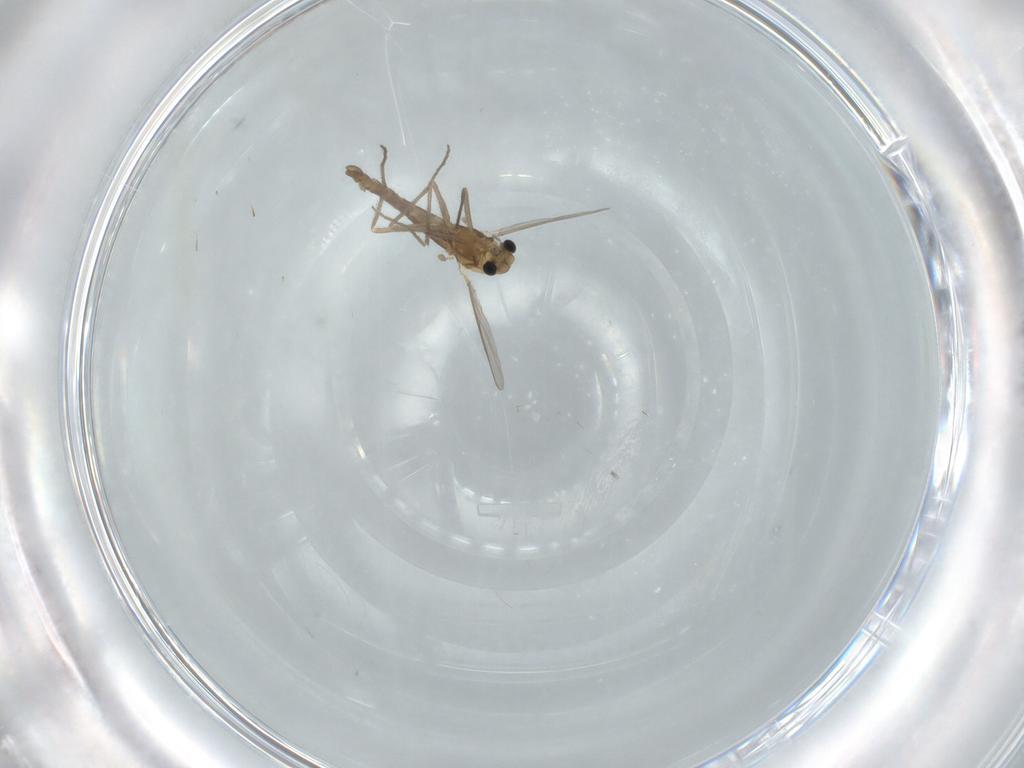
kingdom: Animalia
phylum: Arthropoda
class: Insecta
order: Diptera
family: Chironomidae
